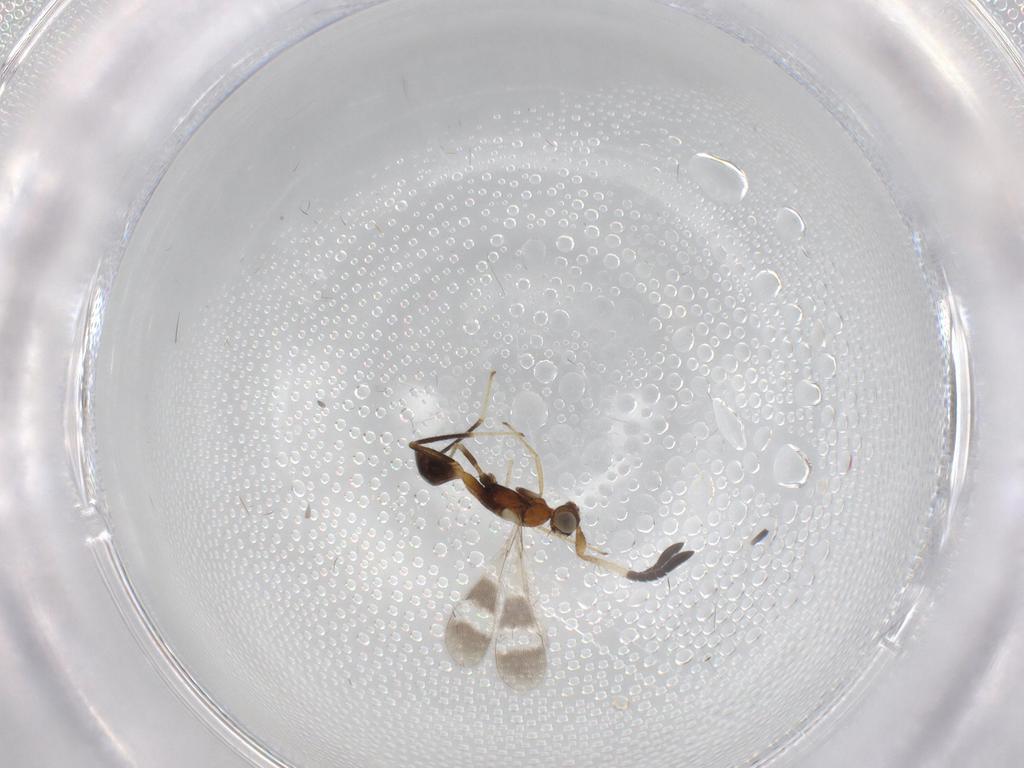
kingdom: Animalia
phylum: Arthropoda
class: Insecta
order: Hymenoptera
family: Mymaridae
